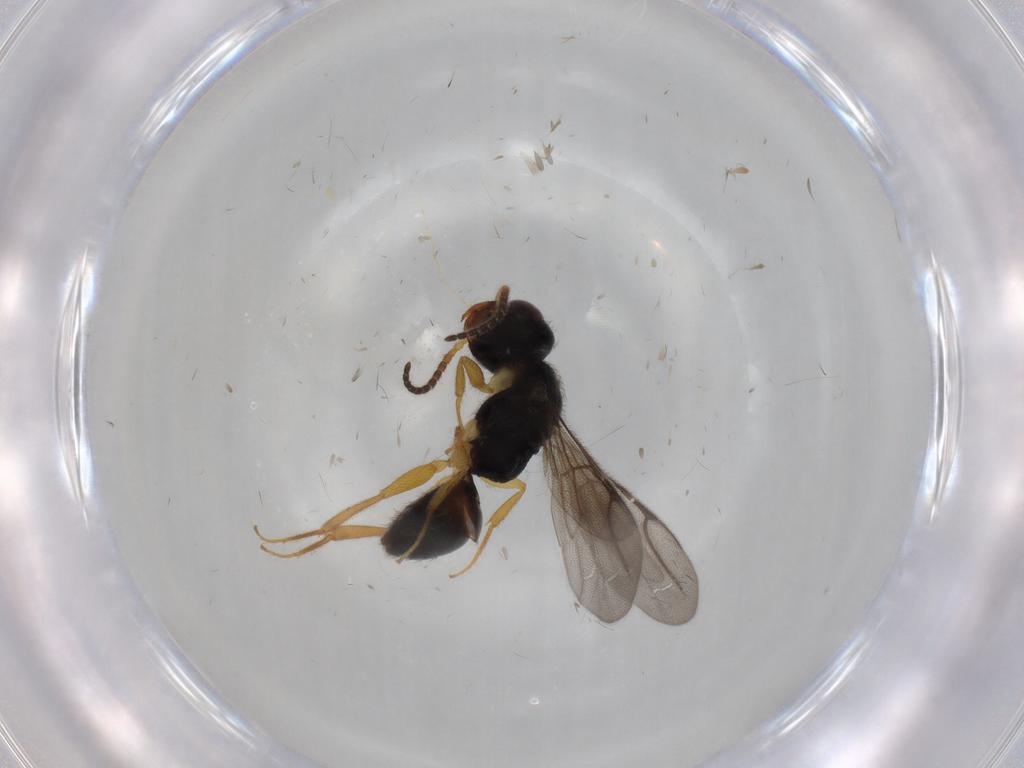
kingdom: Animalia
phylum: Arthropoda
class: Insecta
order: Hymenoptera
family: Bethylidae
